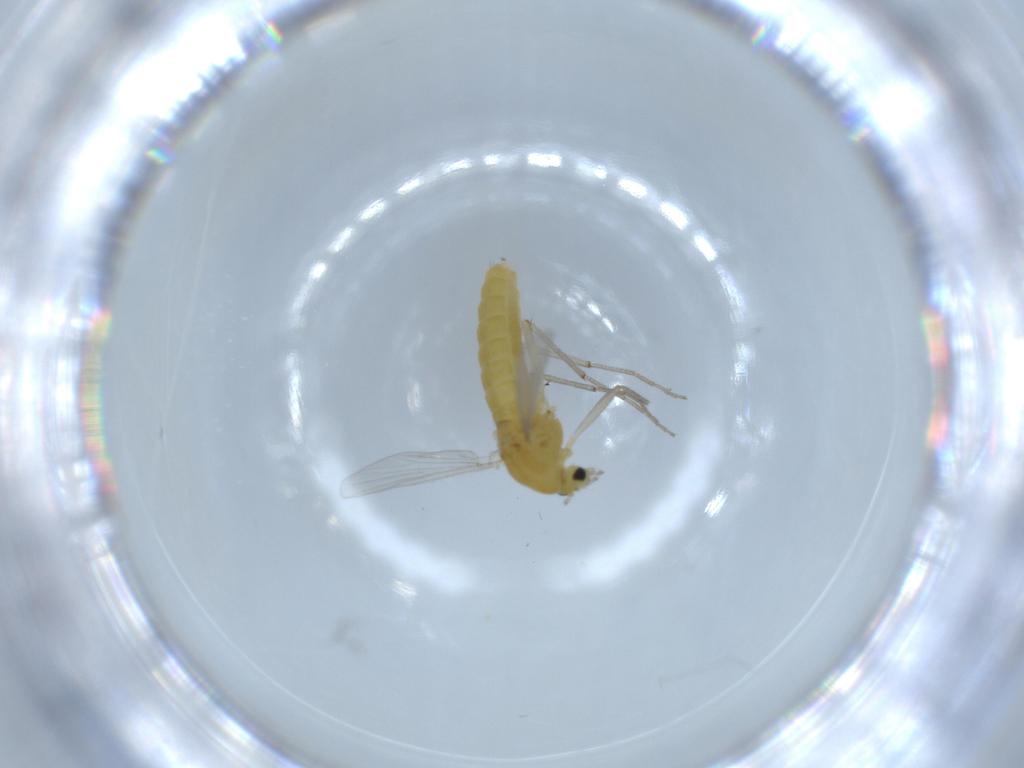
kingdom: Animalia
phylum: Arthropoda
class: Insecta
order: Diptera
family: Chironomidae
